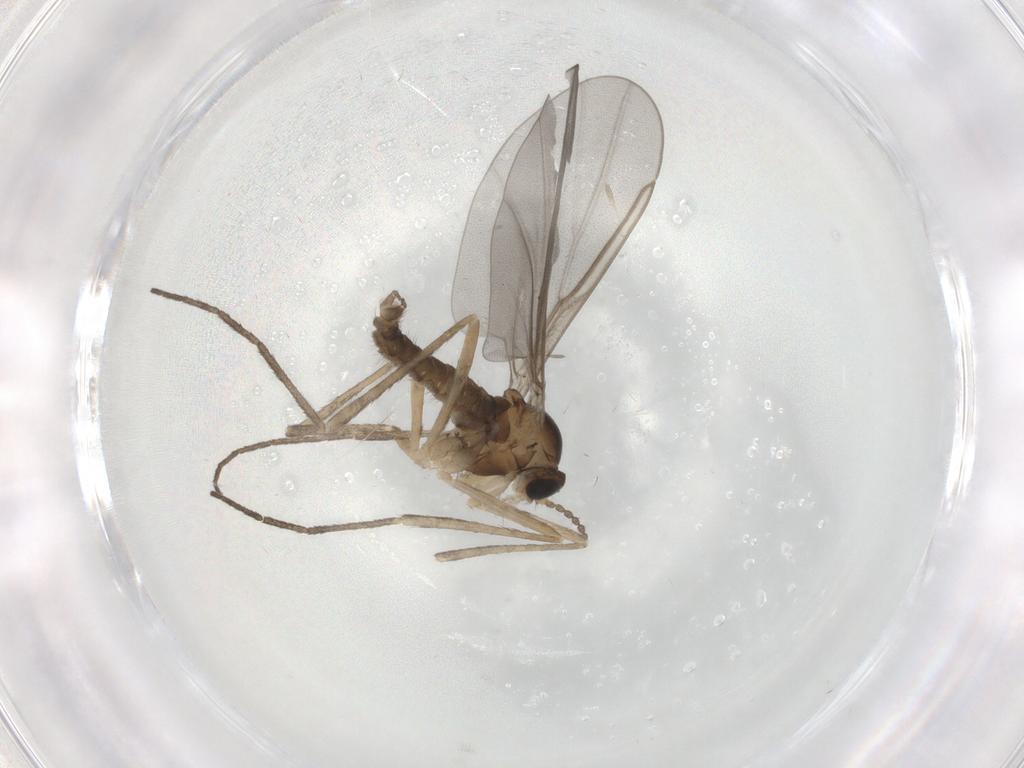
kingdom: Animalia
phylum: Arthropoda
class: Insecta
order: Diptera
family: Cecidomyiidae
